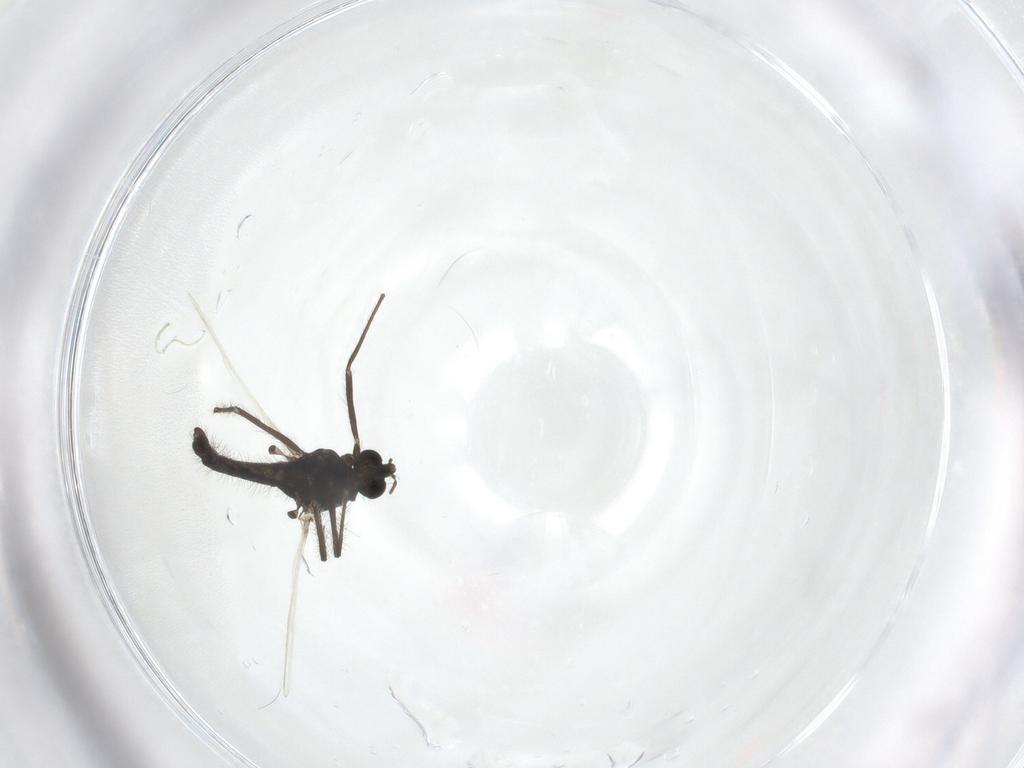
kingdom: Animalia
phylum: Arthropoda
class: Insecta
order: Diptera
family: Chironomidae
